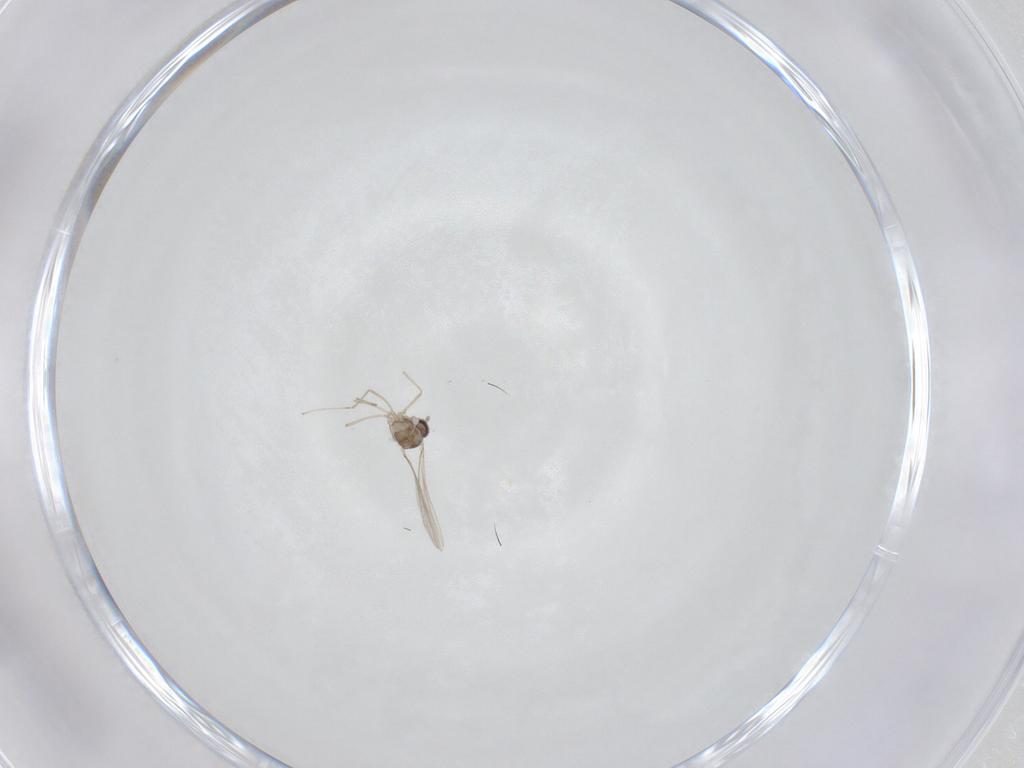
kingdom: Animalia
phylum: Arthropoda
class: Insecta
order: Diptera
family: Cecidomyiidae
